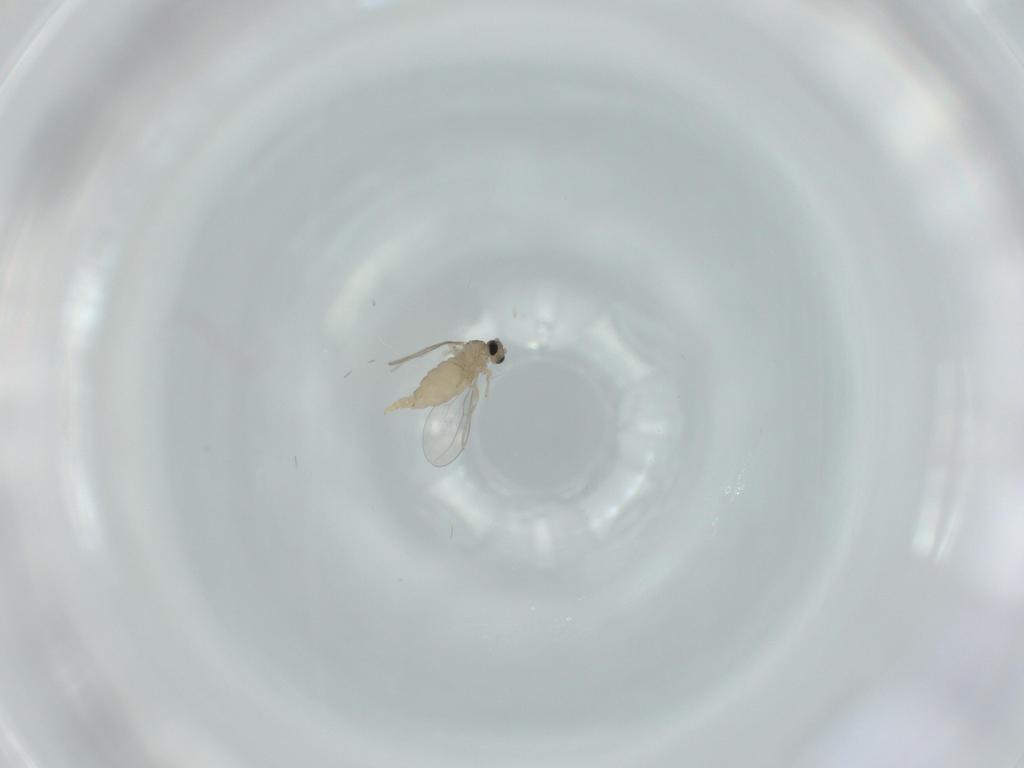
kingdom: Animalia
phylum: Arthropoda
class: Insecta
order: Diptera
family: Cecidomyiidae
